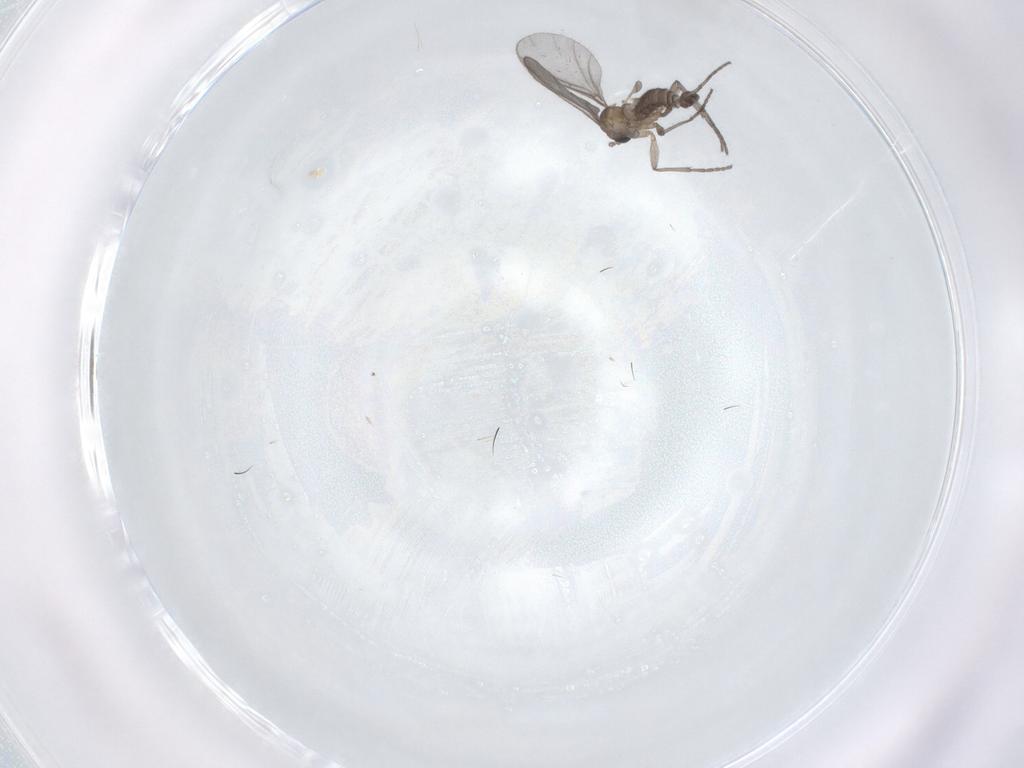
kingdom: Animalia
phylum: Arthropoda
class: Insecta
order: Diptera
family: Sciaridae
